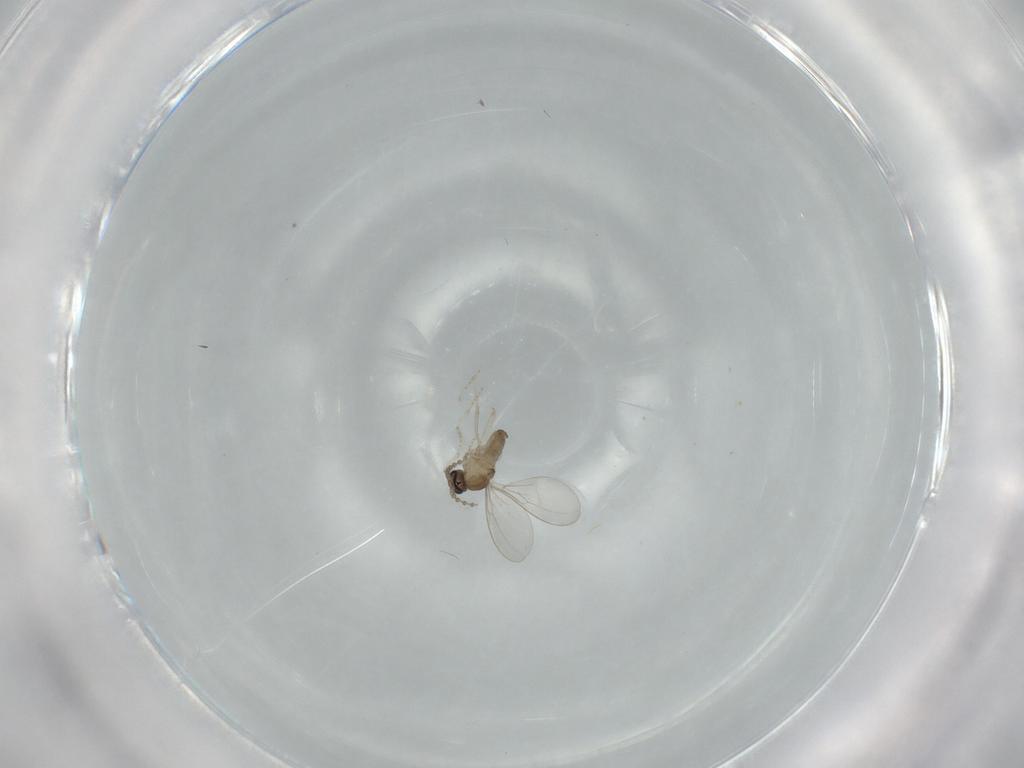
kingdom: Animalia
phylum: Arthropoda
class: Insecta
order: Diptera
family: Cecidomyiidae
